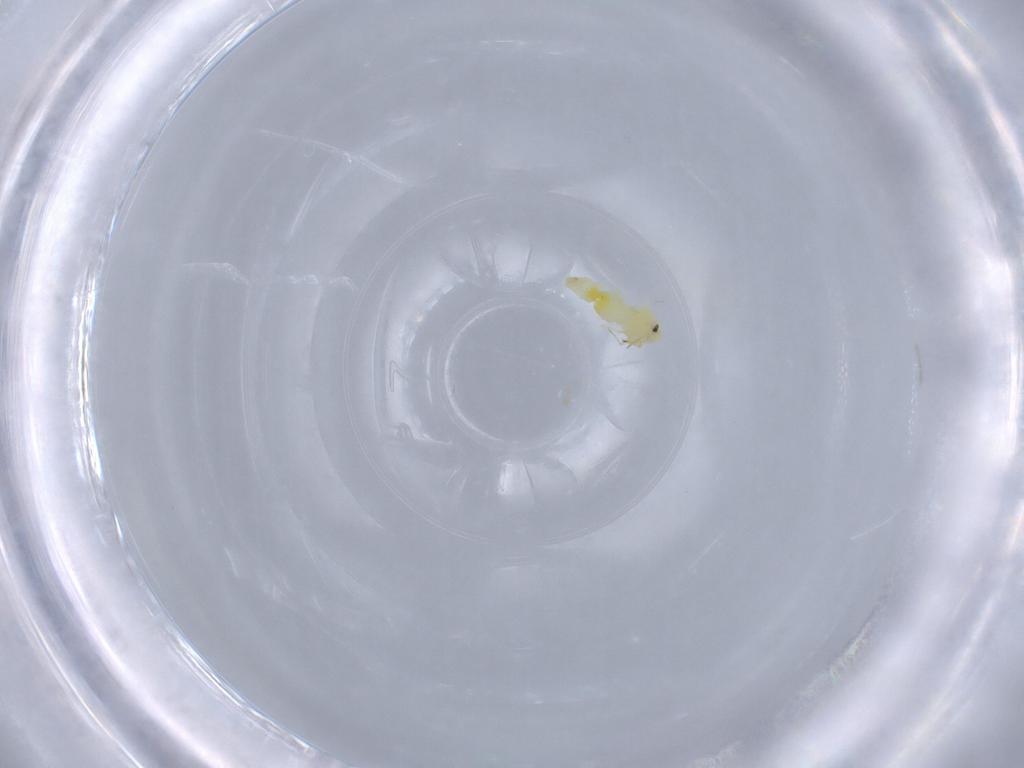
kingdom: Animalia
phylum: Arthropoda
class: Insecta
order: Hemiptera
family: Aleyrodidae
